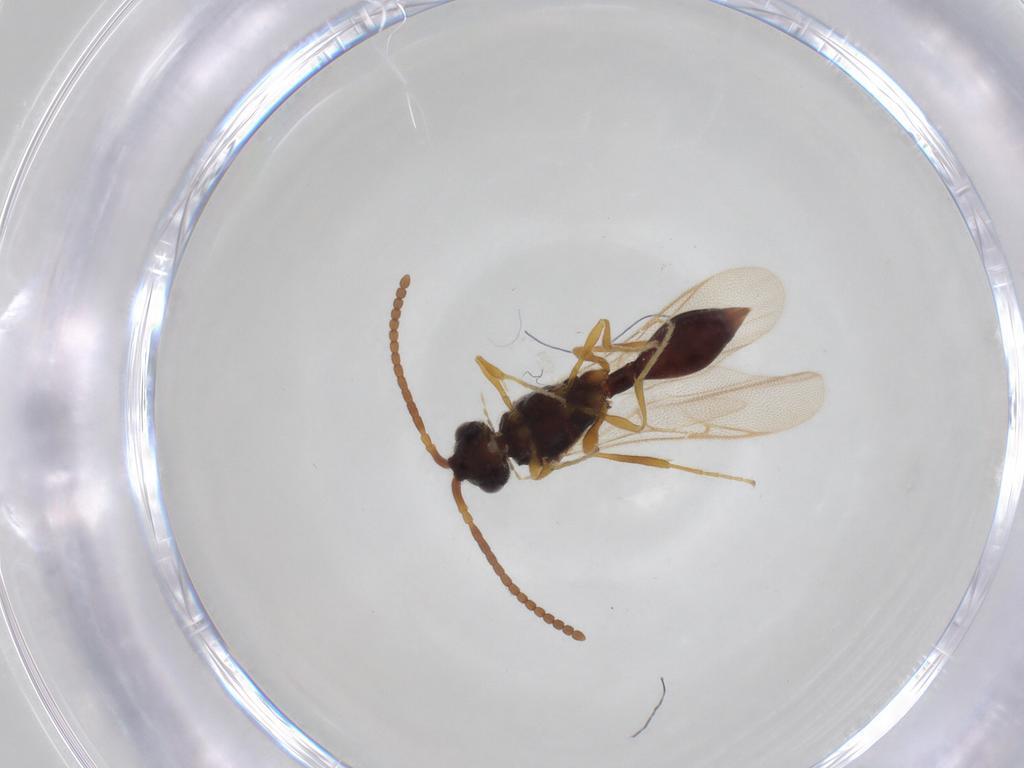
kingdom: Animalia
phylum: Arthropoda
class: Insecta
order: Hymenoptera
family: Diapriidae
